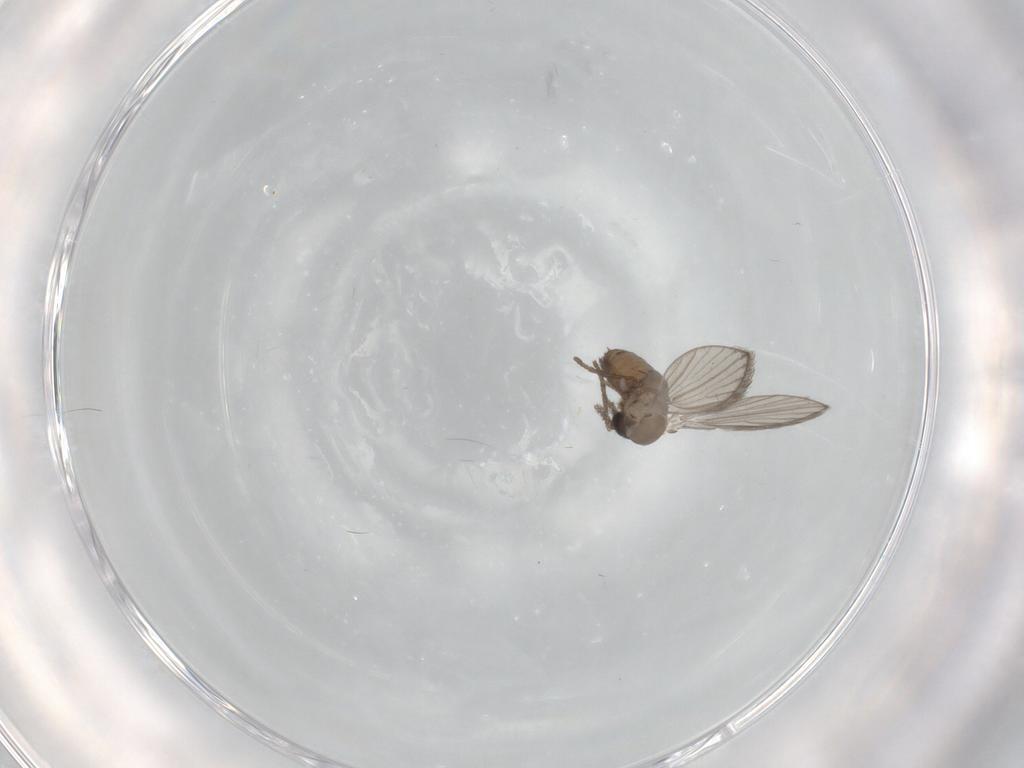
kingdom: Animalia
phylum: Arthropoda
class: Insecta
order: Diptera
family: Psychodidae
